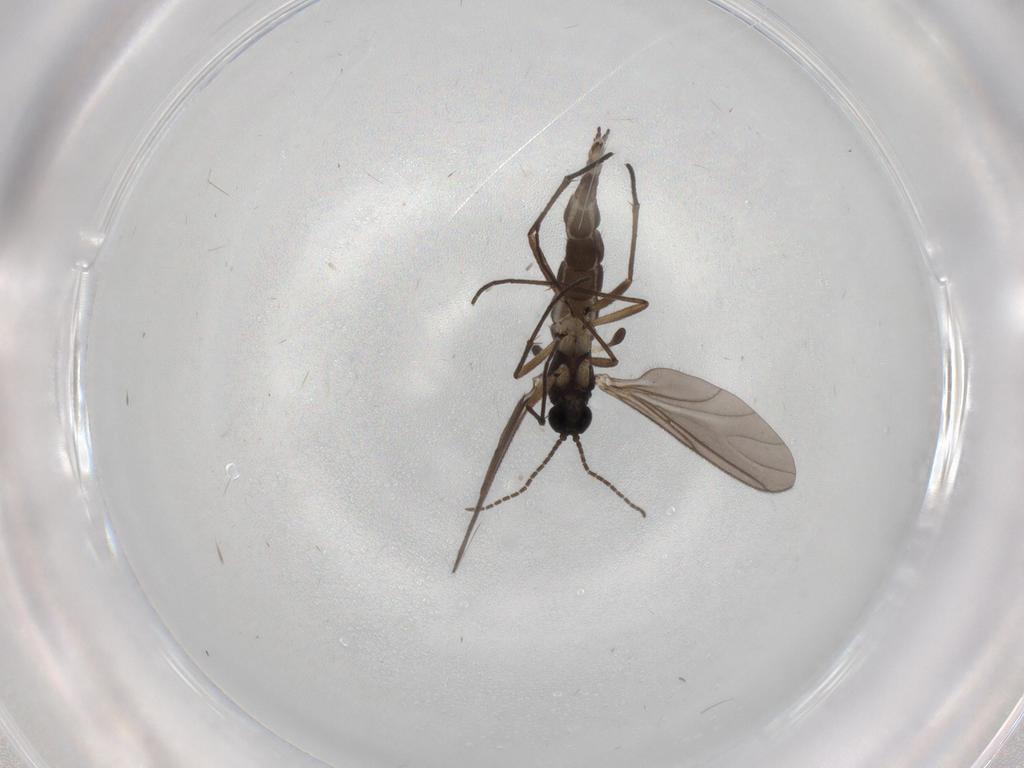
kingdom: Animalia
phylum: Arthropoda
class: Insecta
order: Diptera
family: Sciaridae
